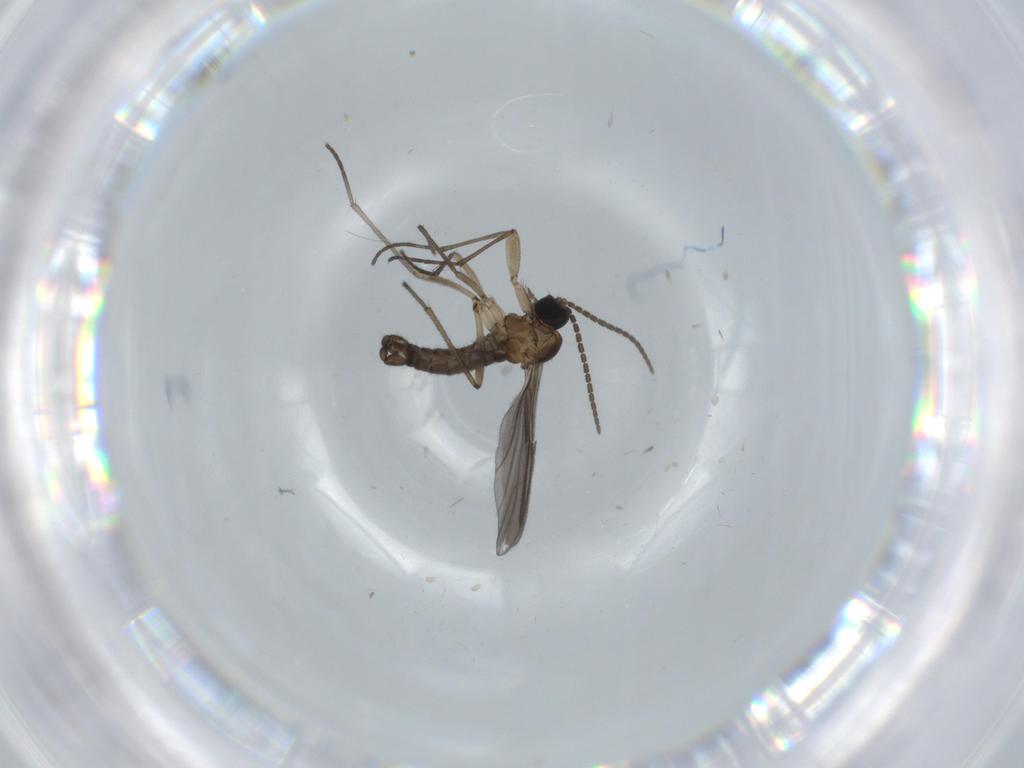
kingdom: Animalia
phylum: Arthropoda
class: Insecta
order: Diptera
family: Sciaridae
